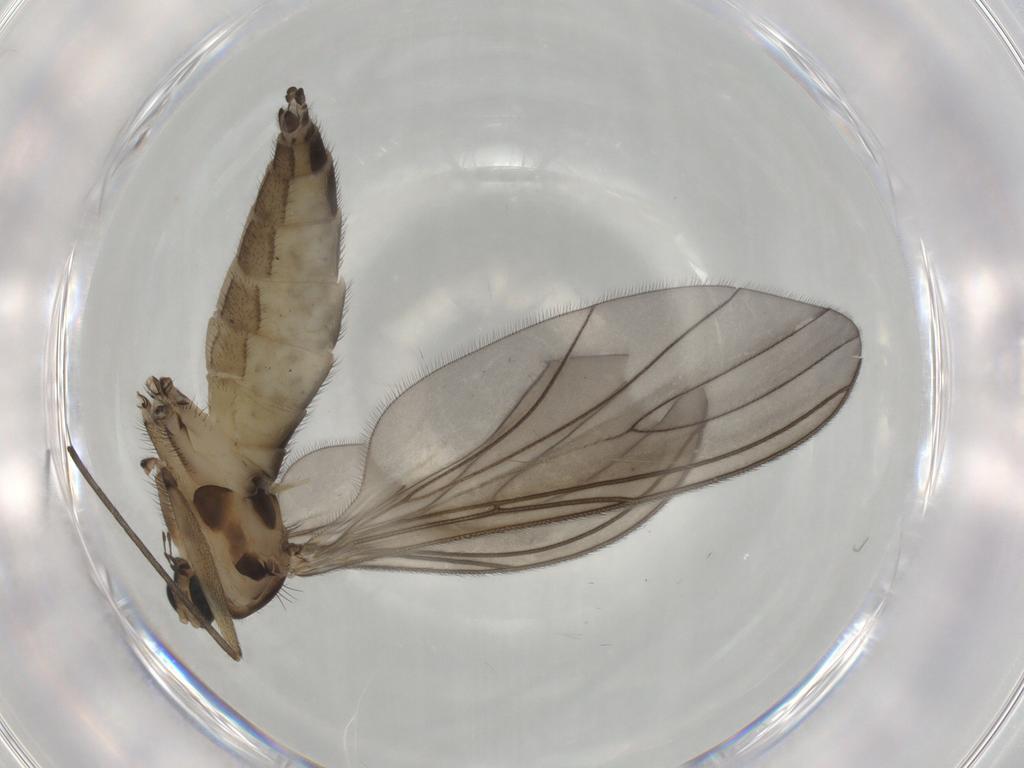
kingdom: Animalia
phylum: Arthropoda
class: Insecta
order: Diptera
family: Sciaridae
